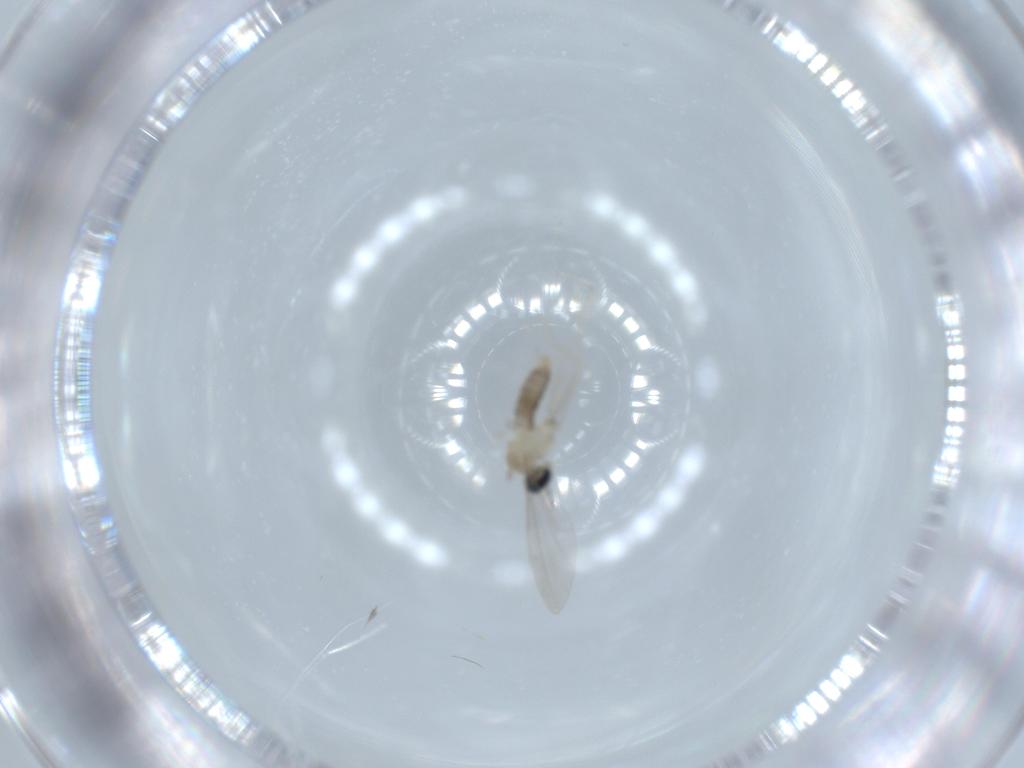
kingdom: Animalia
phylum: Arthropoda
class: Insecta
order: Diptera
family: Cecidomyiidae
